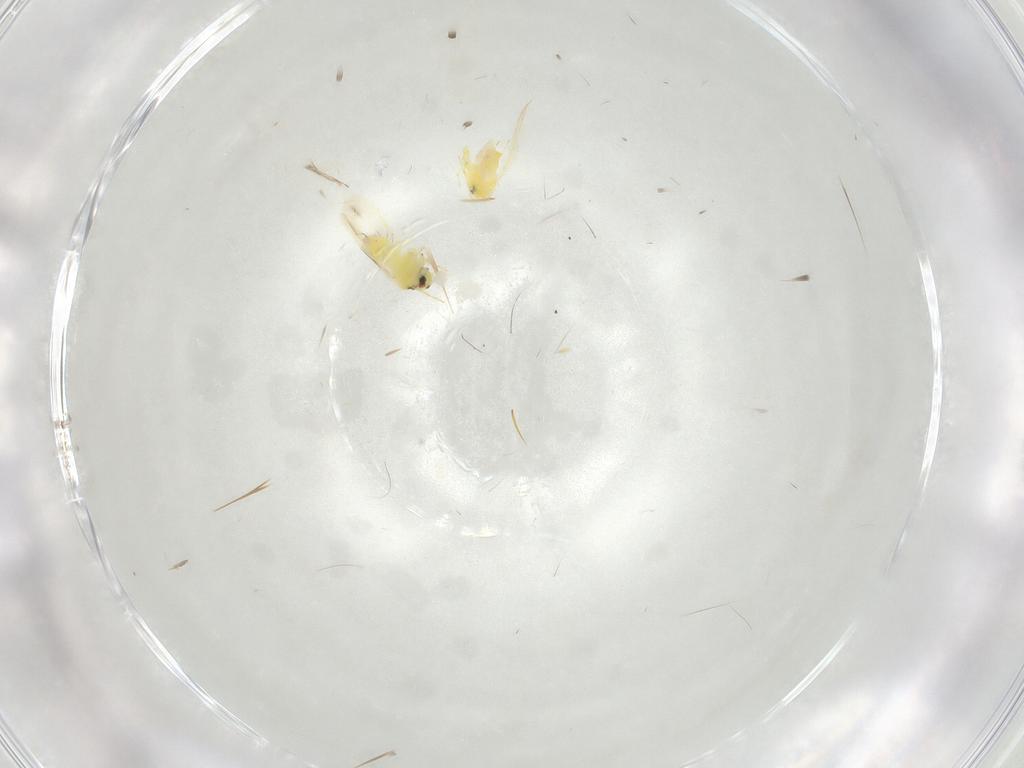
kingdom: Animalia
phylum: Arthropoda
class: Insecta
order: Hemiptera
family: Aleyrodidae
